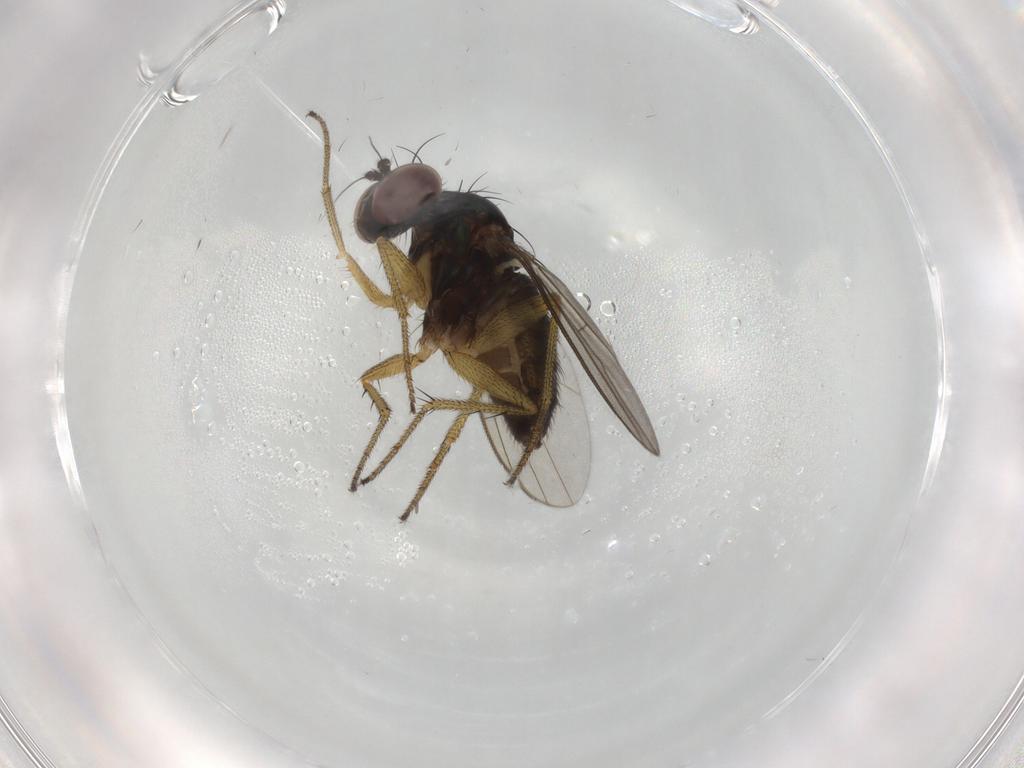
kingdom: Animalia
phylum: Arthropoda
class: Insecta
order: Diptera
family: Dolichopodidae
